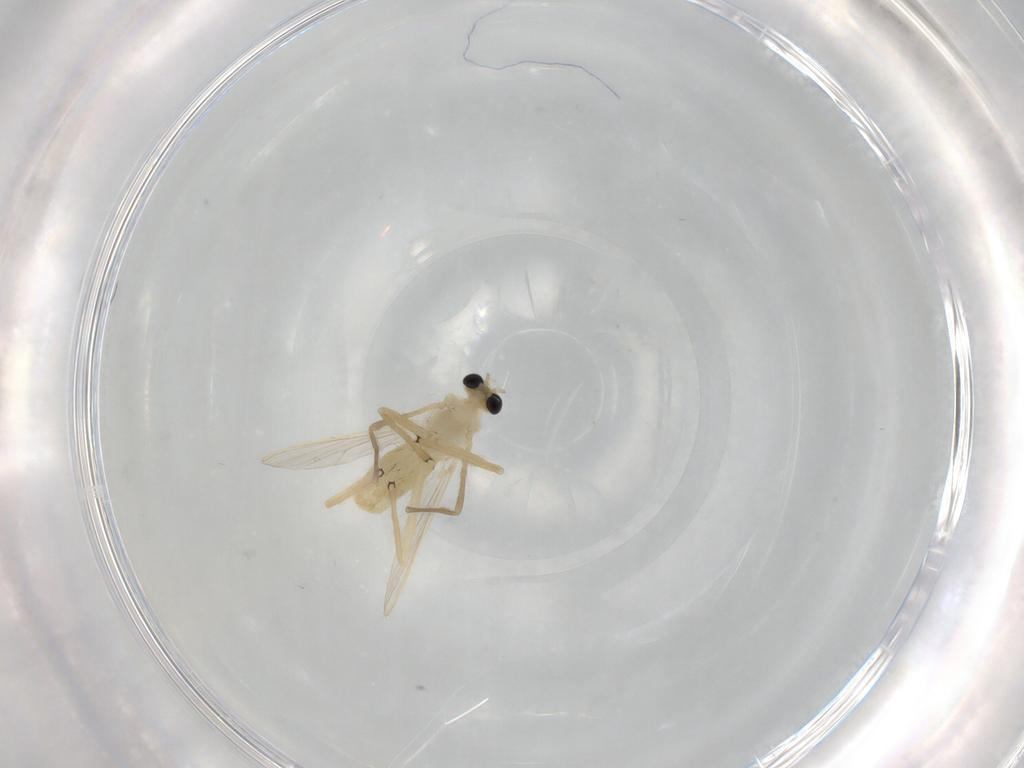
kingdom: Animalia
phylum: Arthropoda
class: Insecta
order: Diptera
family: Chironomidae
